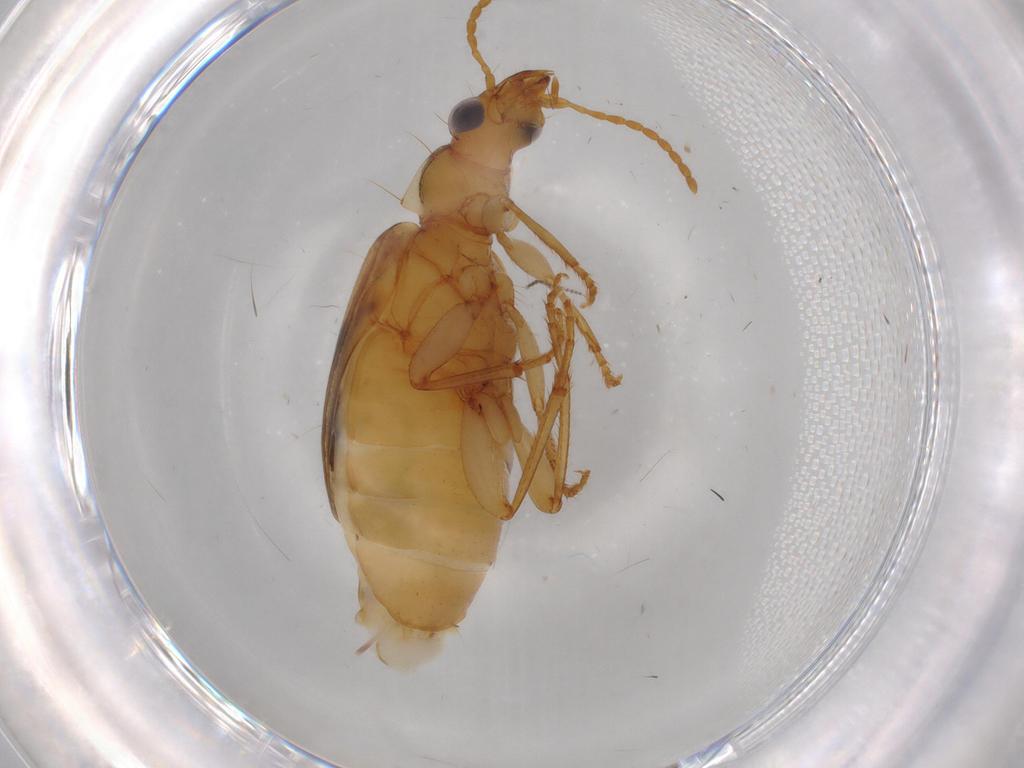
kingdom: Animalia
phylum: Arthropoda
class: Insecta
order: Coleoptera
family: Carabidae
